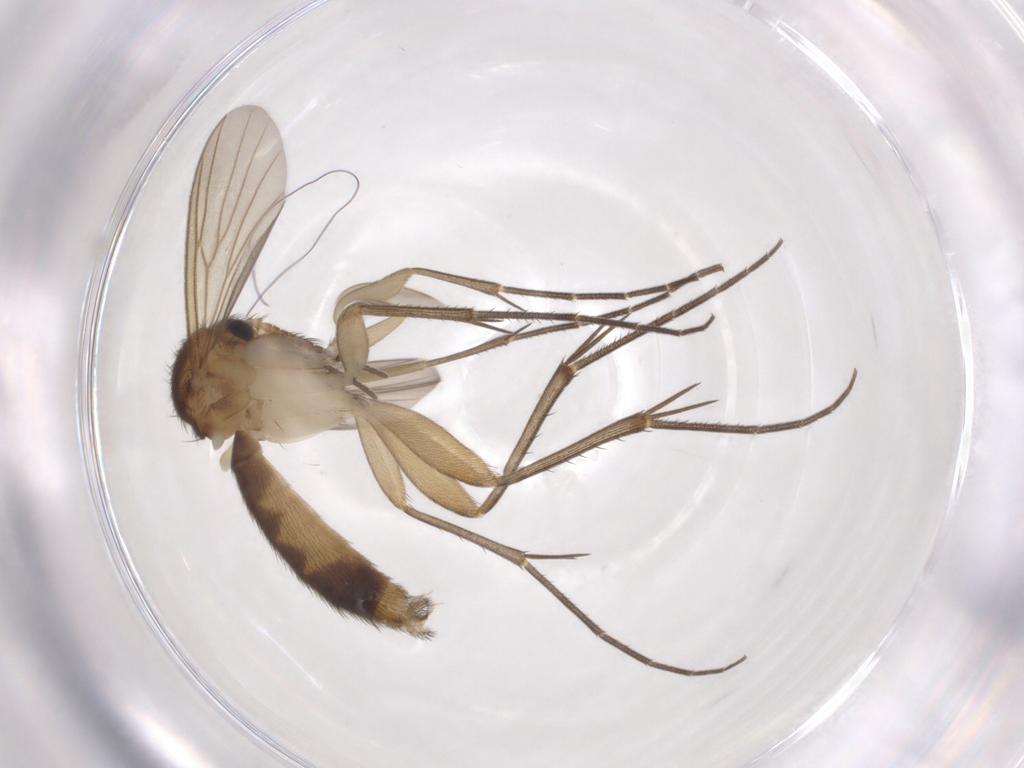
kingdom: Animalia
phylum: Arthropoda
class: Insecta
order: Diptera
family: Mycetophilidae
